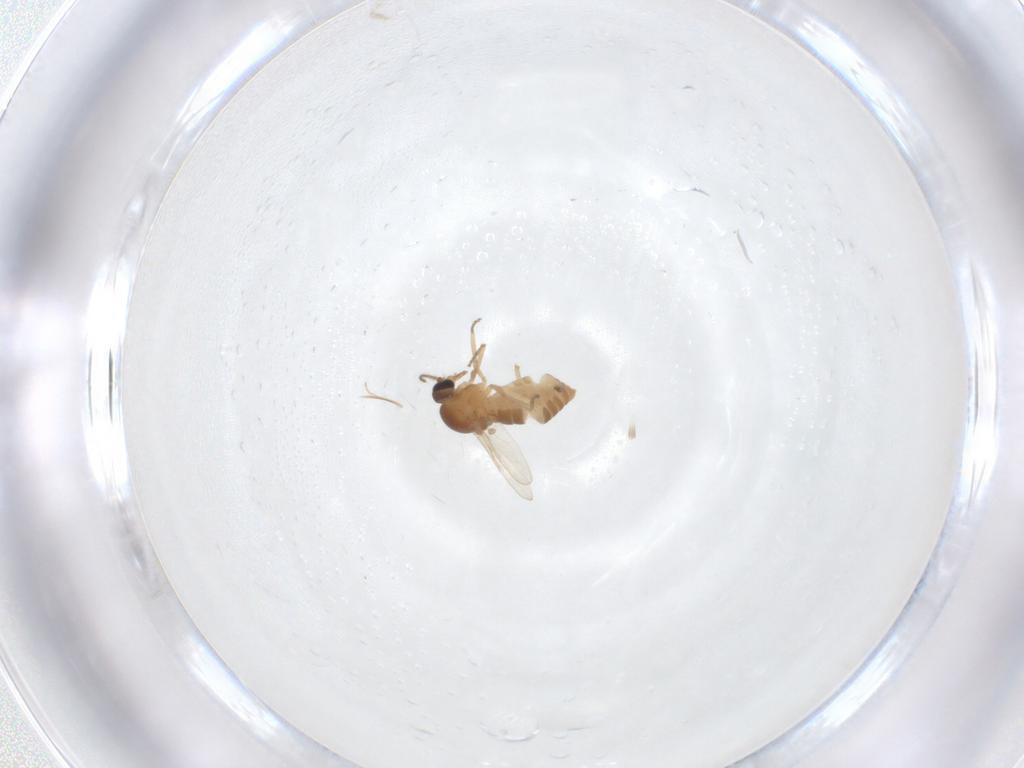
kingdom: Animalia
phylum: Arthropoda
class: Insecta
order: Diptera
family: Ceratopogonidae
